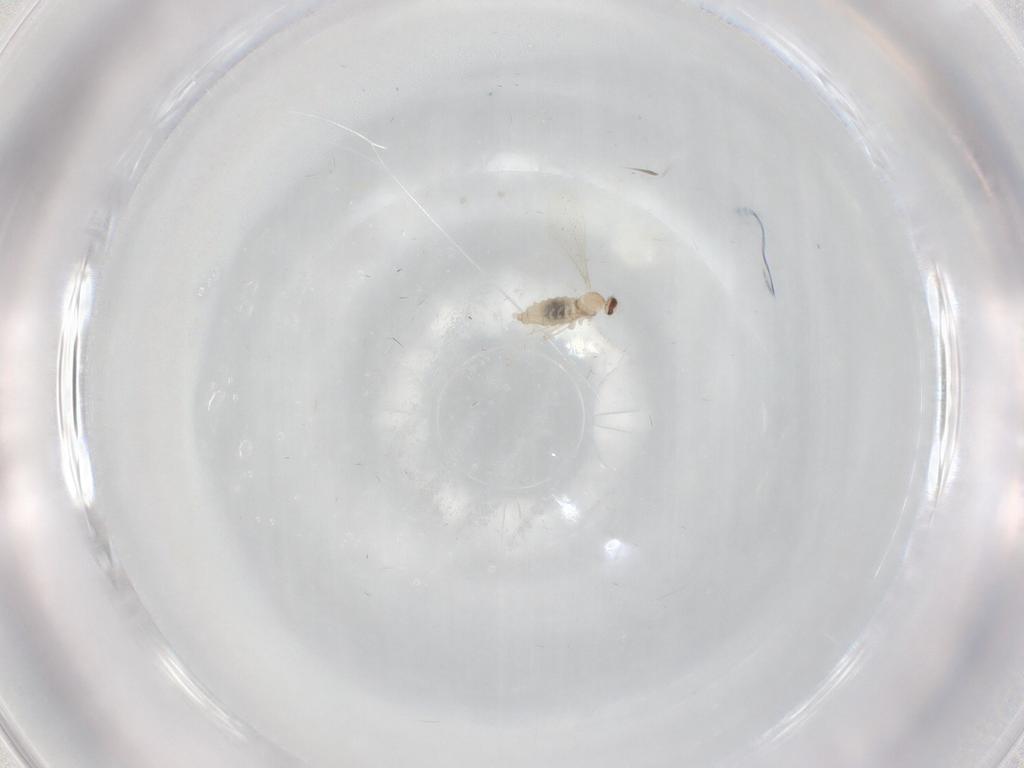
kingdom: Animalia
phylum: Arthropoda
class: Insecta
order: Diptera
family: Cecidomyiidae
